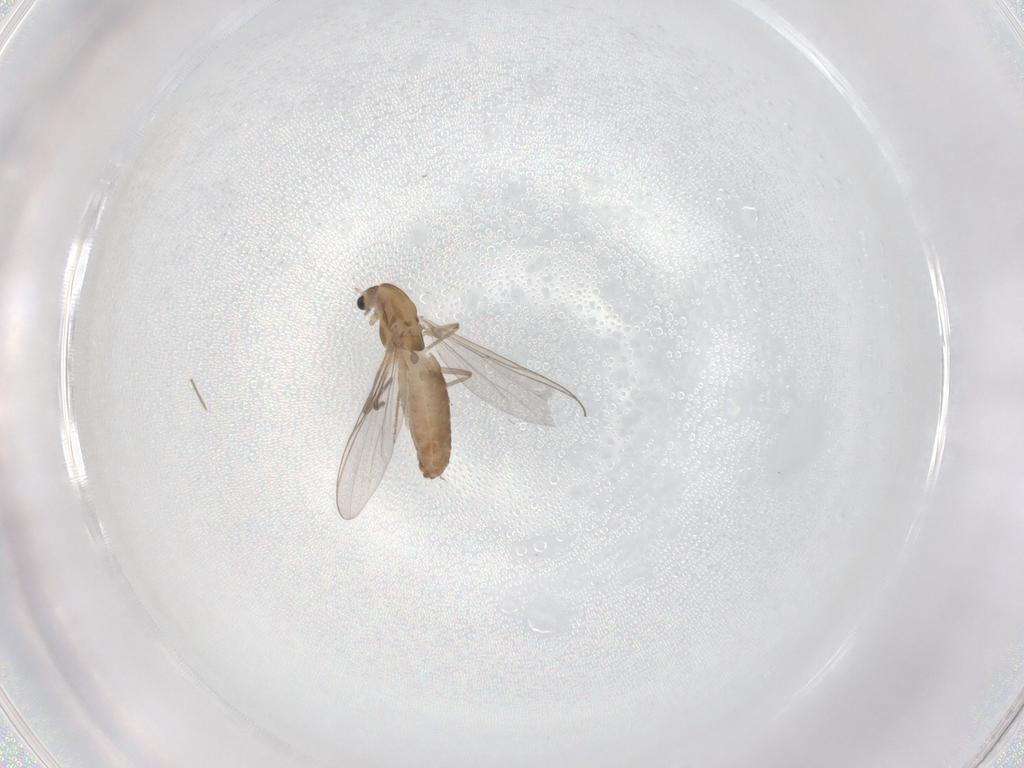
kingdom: Animalia
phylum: Arthropoda
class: Insecta
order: Diptera
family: Chironomidae
